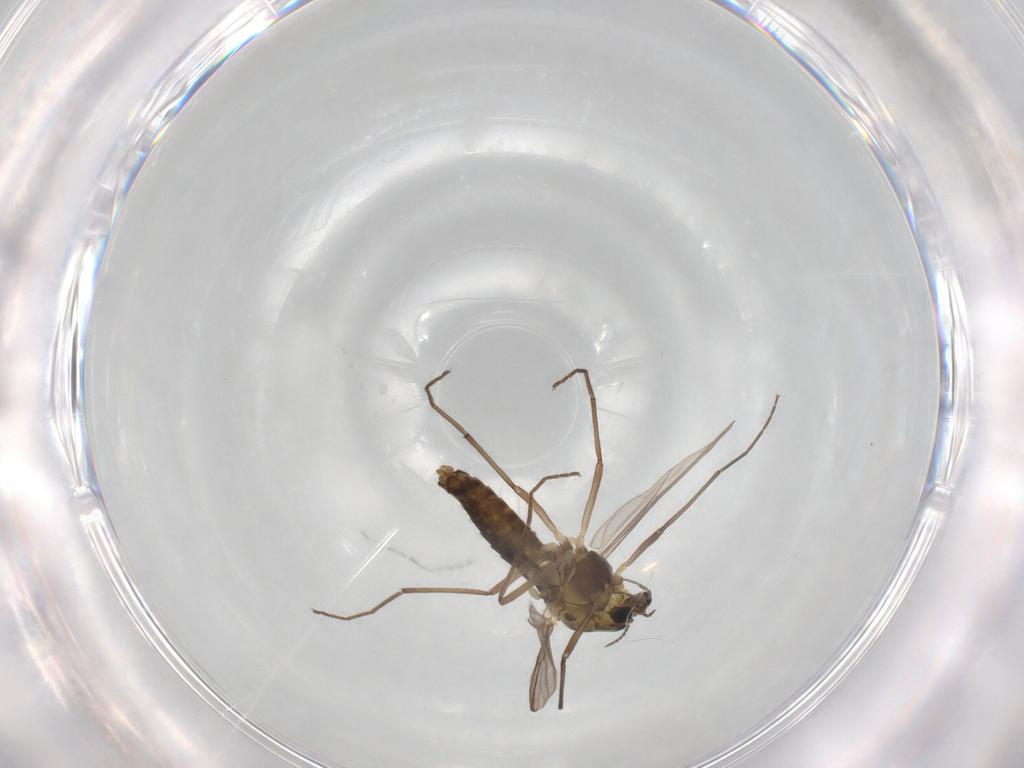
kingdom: Animalia
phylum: Arthropoda
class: Insecta
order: Diptera
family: Chironomidae
